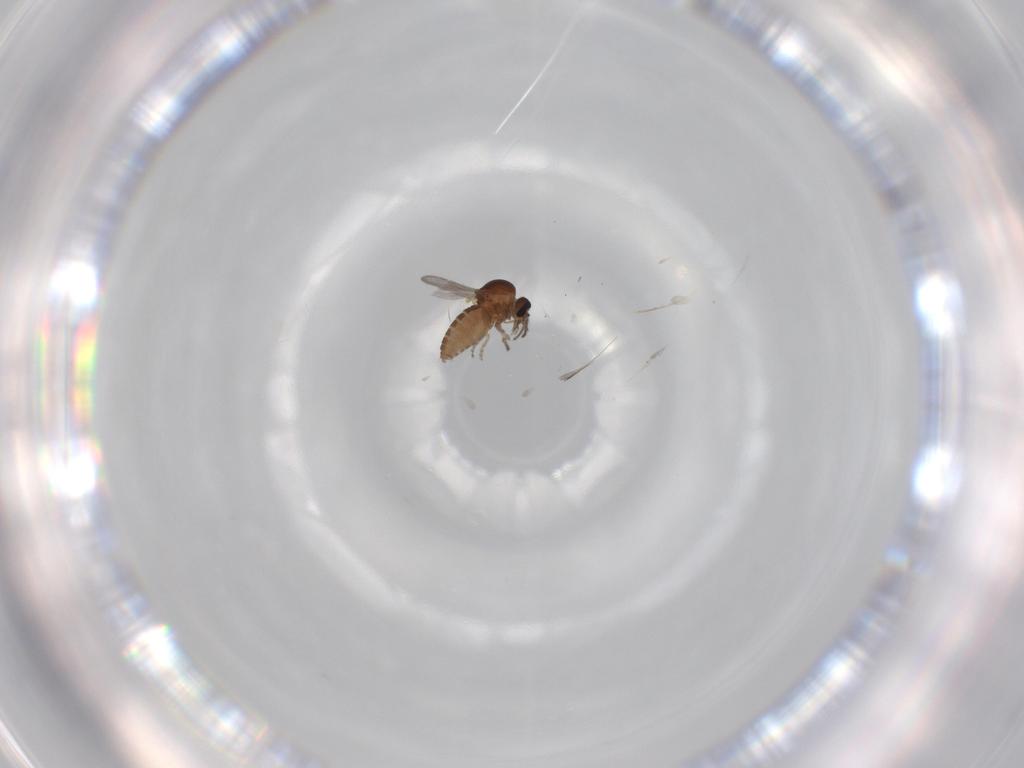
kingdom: Animalia
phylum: Arthropoda
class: Insecta
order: Diptera
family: Ceratopogonidae
